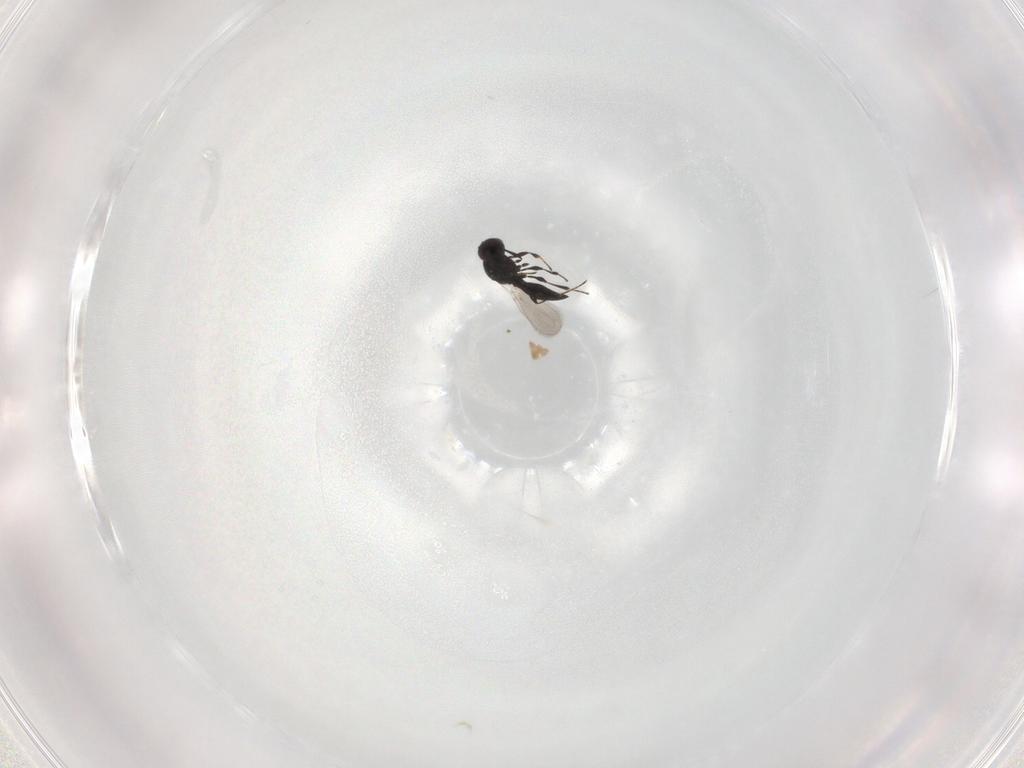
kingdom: Animalia
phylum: Arthropoda
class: Insecta
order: Hymenoptera
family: Platygastridae
